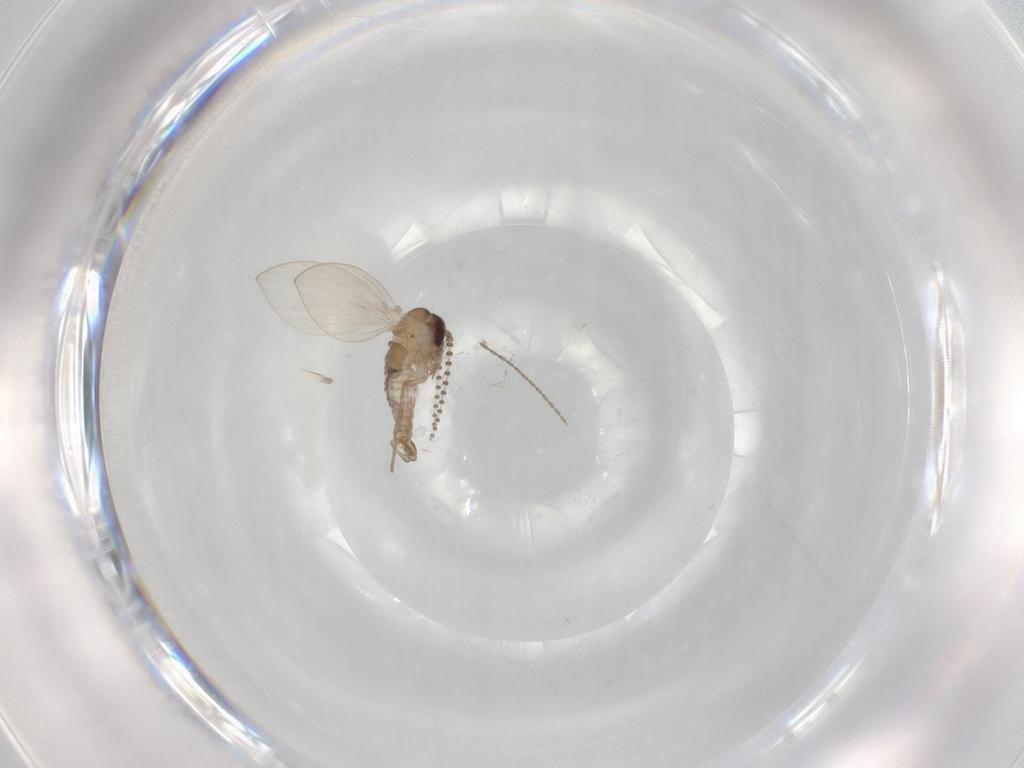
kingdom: Animalia
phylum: Arthropoda
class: Insecta
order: Diptera
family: Psychodidae
